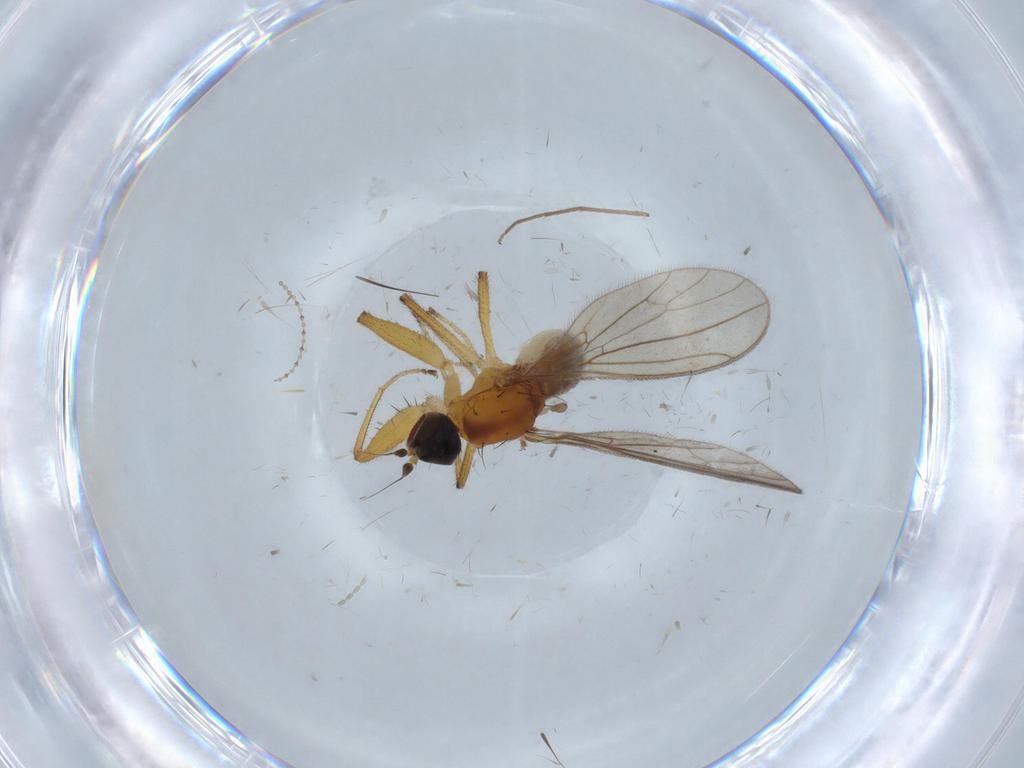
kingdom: Animalia
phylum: Arthropoda
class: Insecta
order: Diptera
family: Empididae
